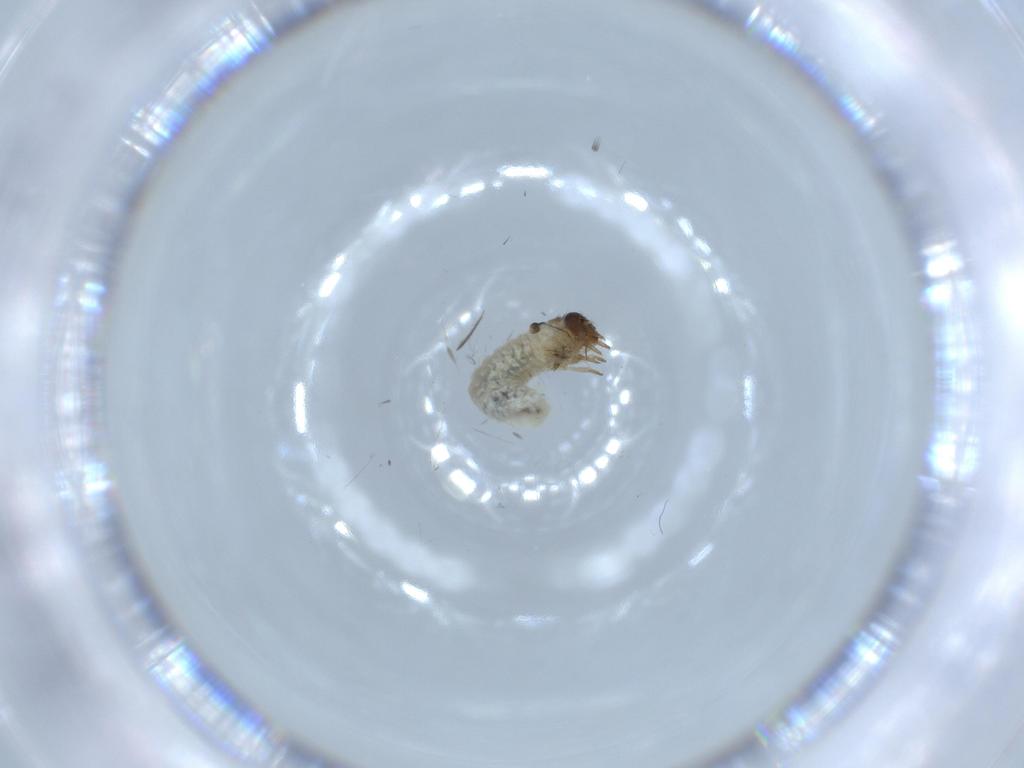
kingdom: Animalia
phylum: Arthropoda
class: Insecta
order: Coleoptera
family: Chrysomelidae
